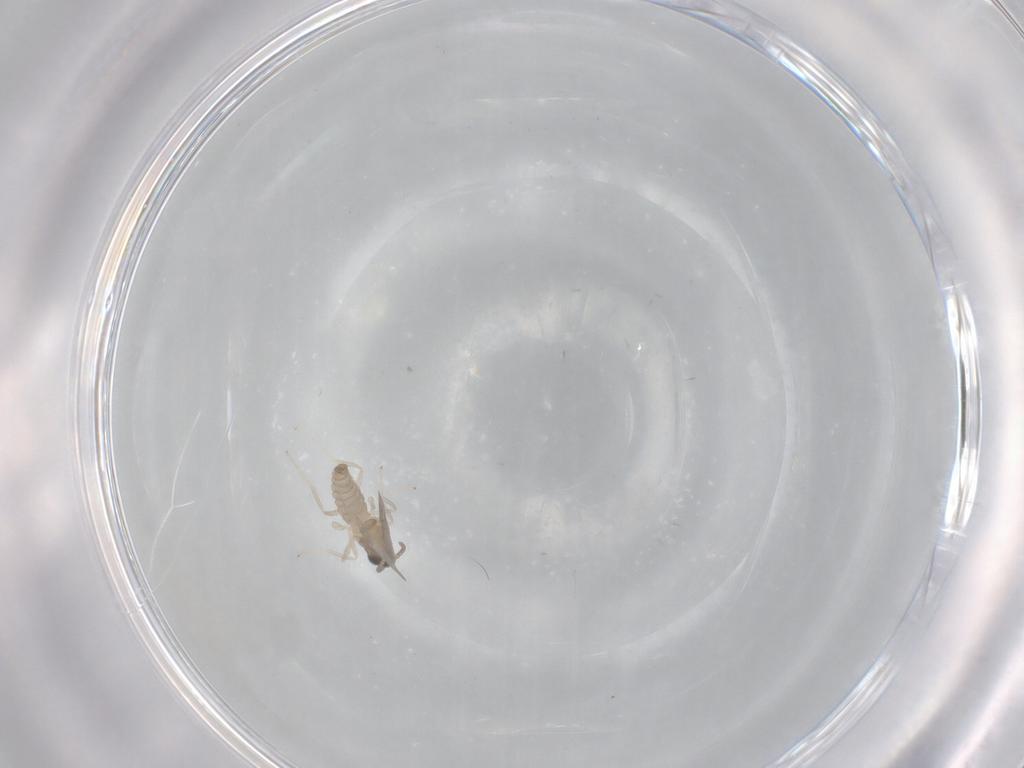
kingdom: Animalia
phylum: Arthropoda
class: Insecta
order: Diptera
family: Cecidomyiidae
